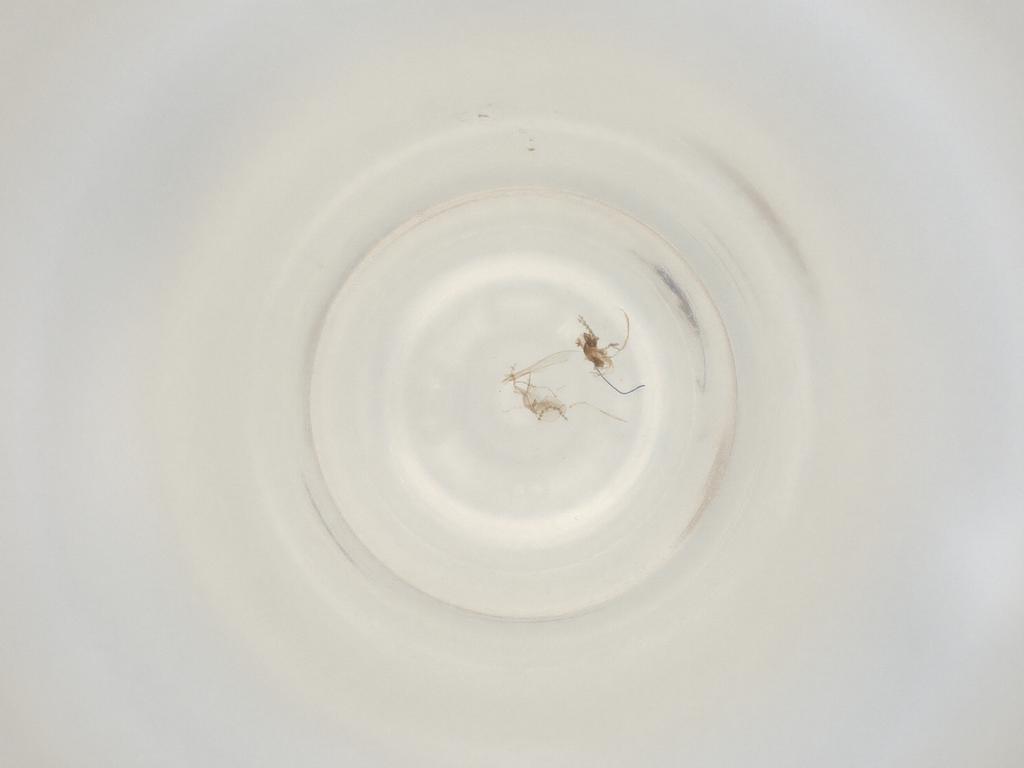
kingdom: Animalia
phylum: Arthropoda
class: Insecta
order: Diptera
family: Cecidomyiidae
